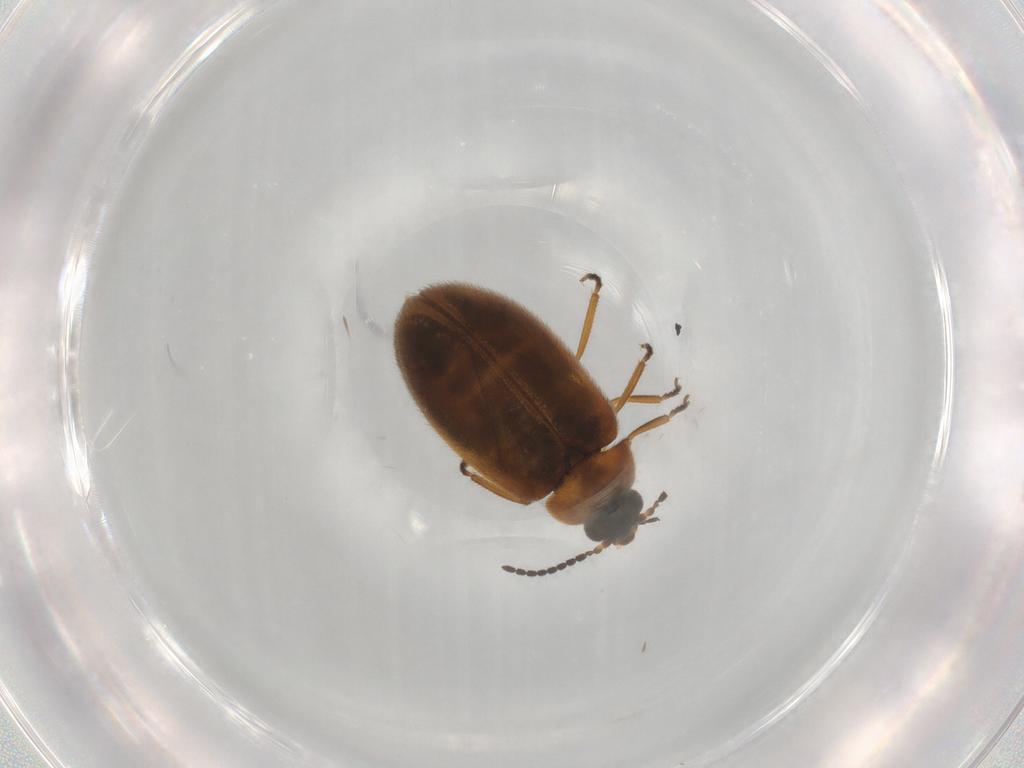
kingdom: Animalia
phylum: Arthropoda
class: Insecta
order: Coleoptera
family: Scirtidae
